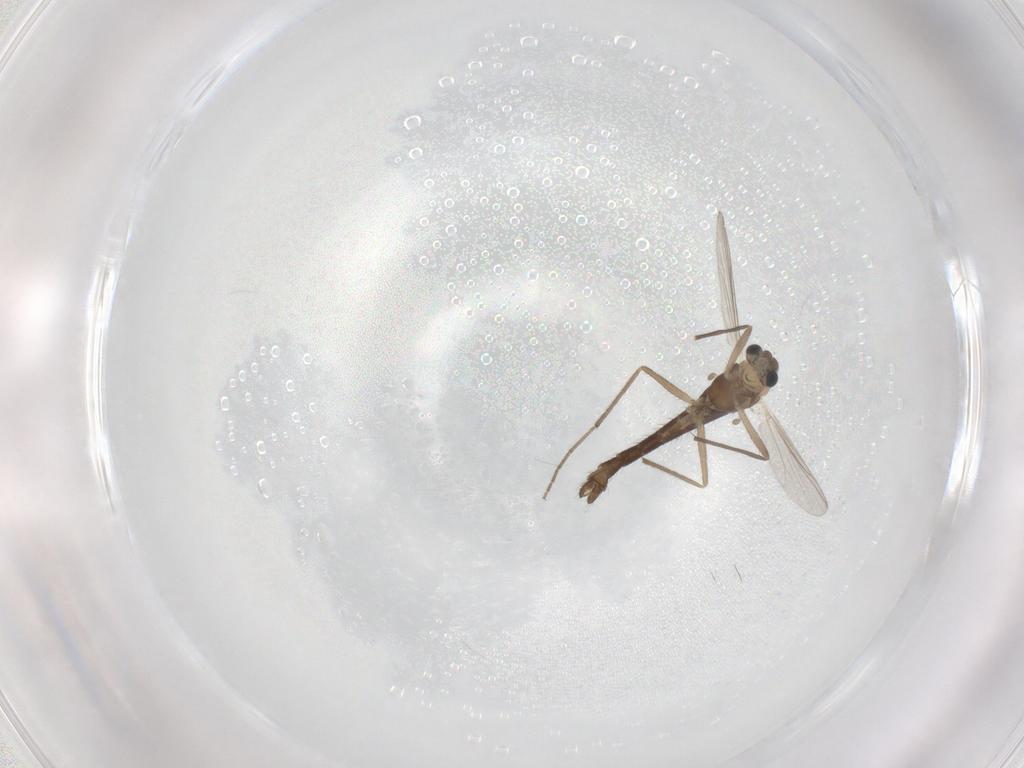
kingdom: Animalia
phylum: Arthropoda
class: Insecta
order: Diptera
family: Chironomidae
